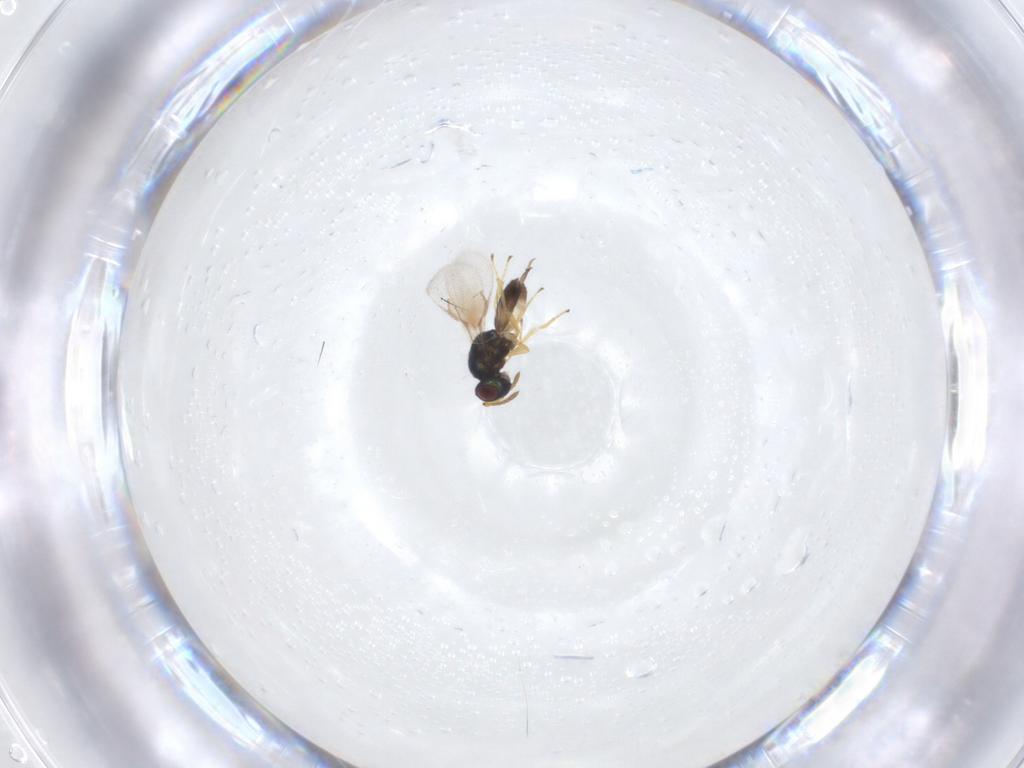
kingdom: Animalia
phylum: Arthropoda
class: Insecta
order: Hymenoptera
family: Pteromalidae
